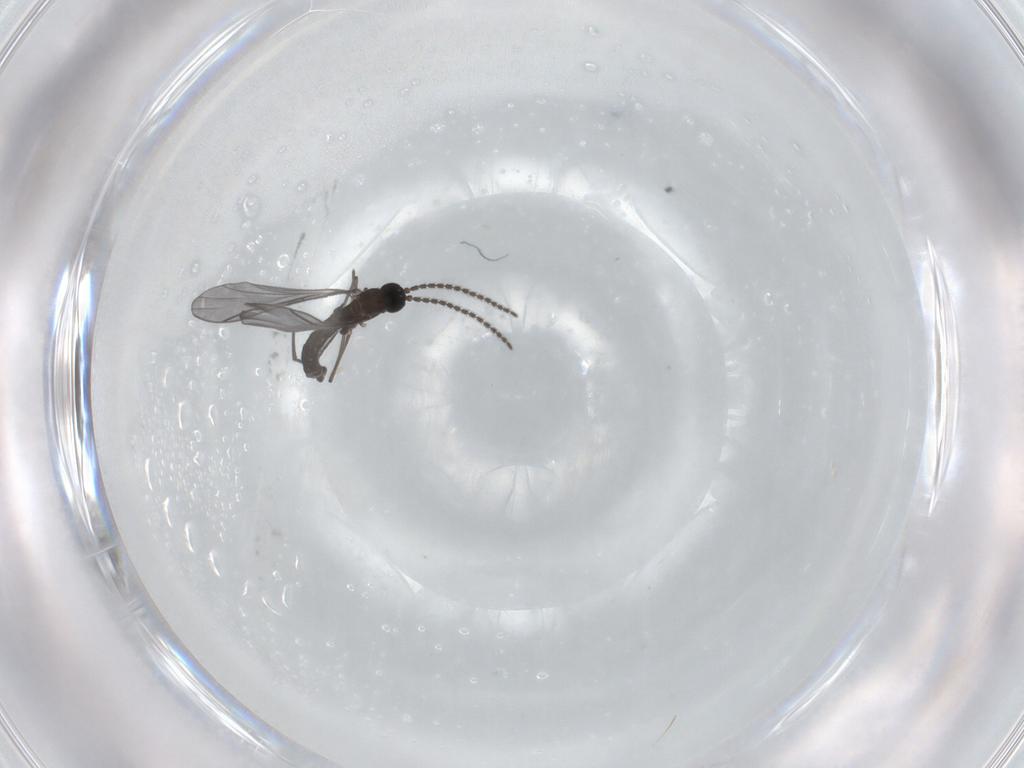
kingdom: Animalia
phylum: Arthropoda
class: Insecta
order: Diptera
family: Sciaridae
